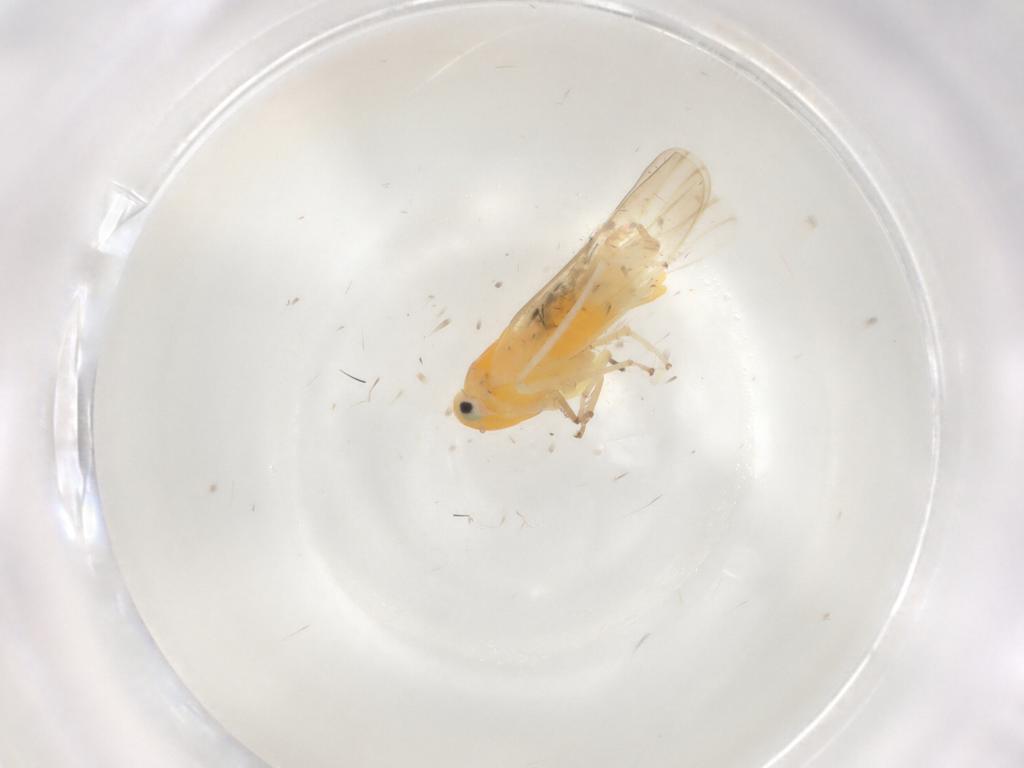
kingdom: Animalia
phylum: Arthropoda
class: Insecta
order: Hemiptera
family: Cicadellidae
